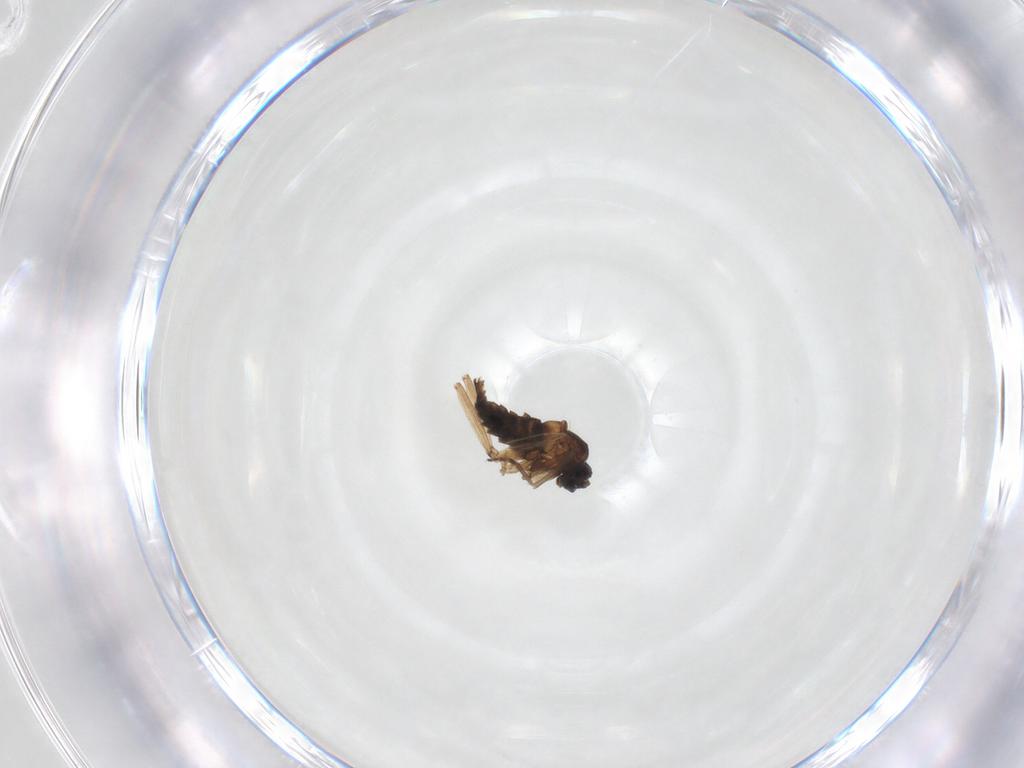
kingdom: Animalia
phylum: Arthropoda
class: Insecta
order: Diptera
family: Sciaridae
